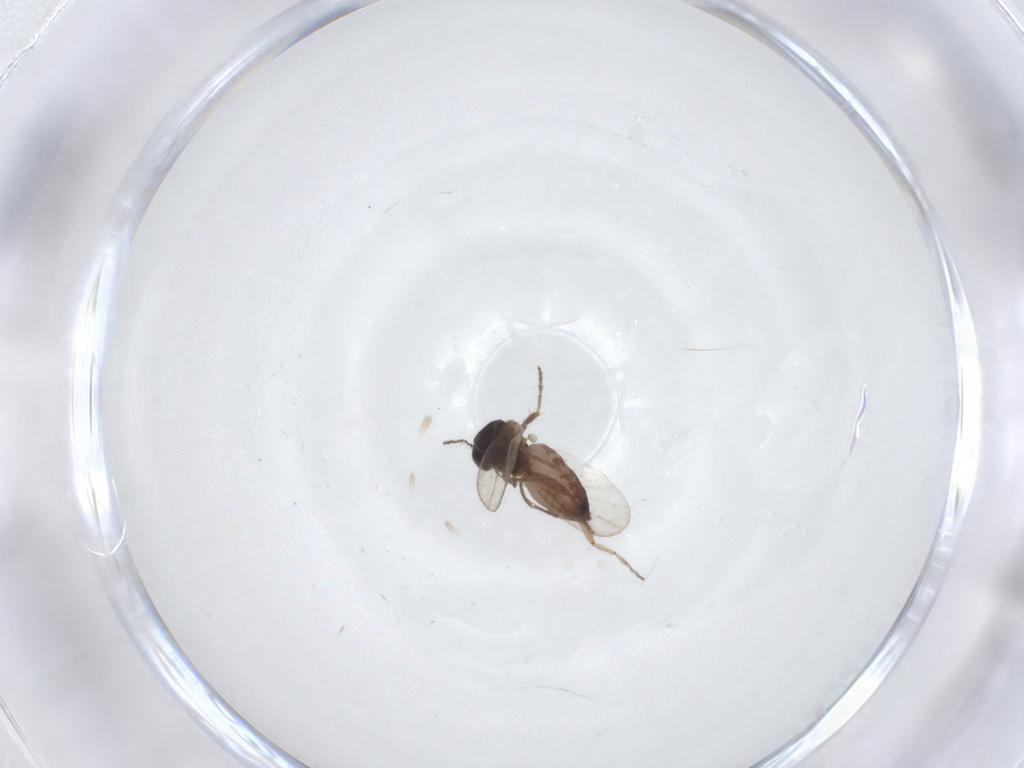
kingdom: Animalia
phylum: Arthropoda
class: Insecta
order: Diptera
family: Ceratopogonidae
